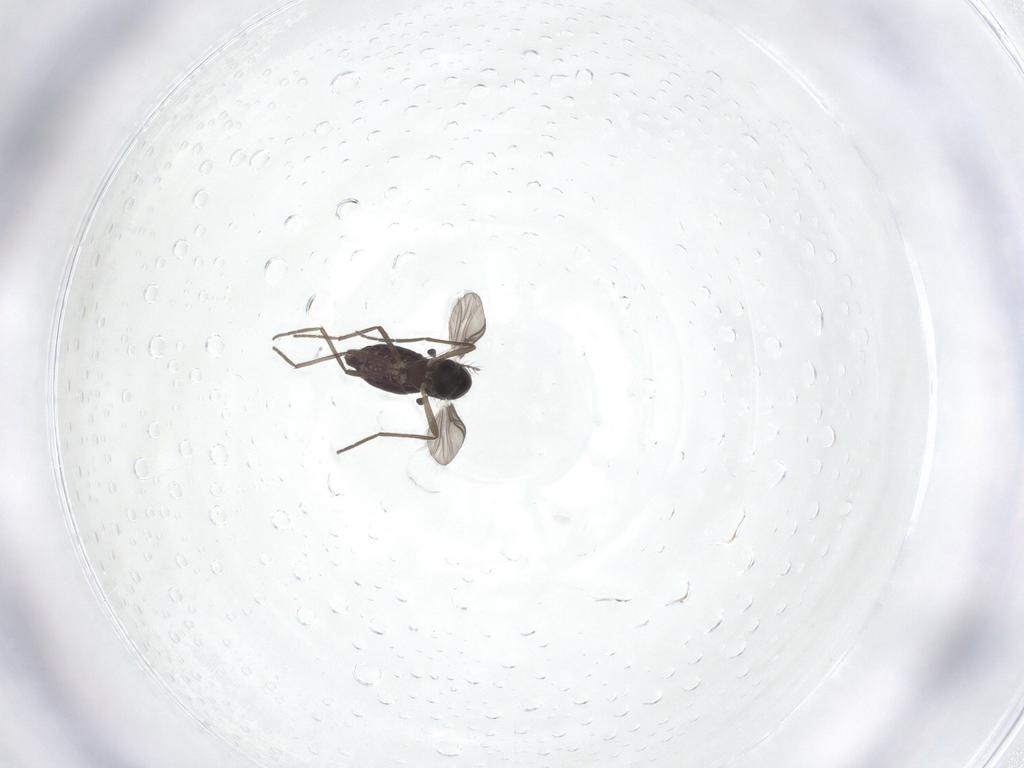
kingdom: Animalia
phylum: Arthropoda
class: Insecta
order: Diptera
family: Chironomidae
